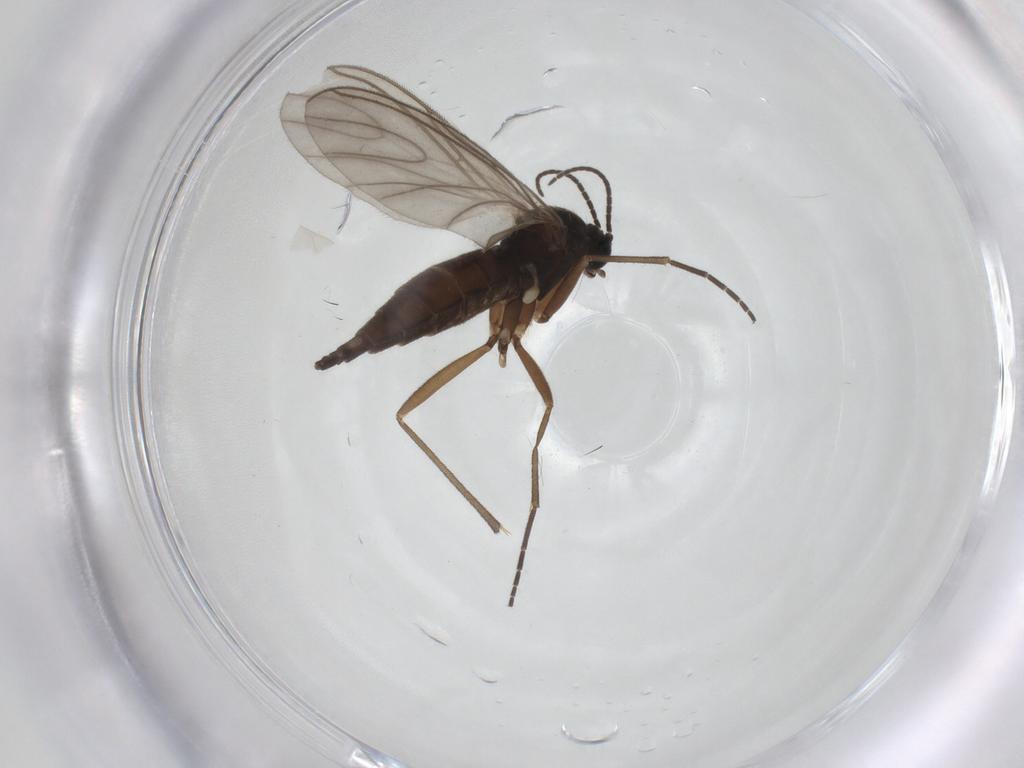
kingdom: Animalia
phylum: Arthropoda
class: Insecta
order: Diptera
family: Sciaridae
